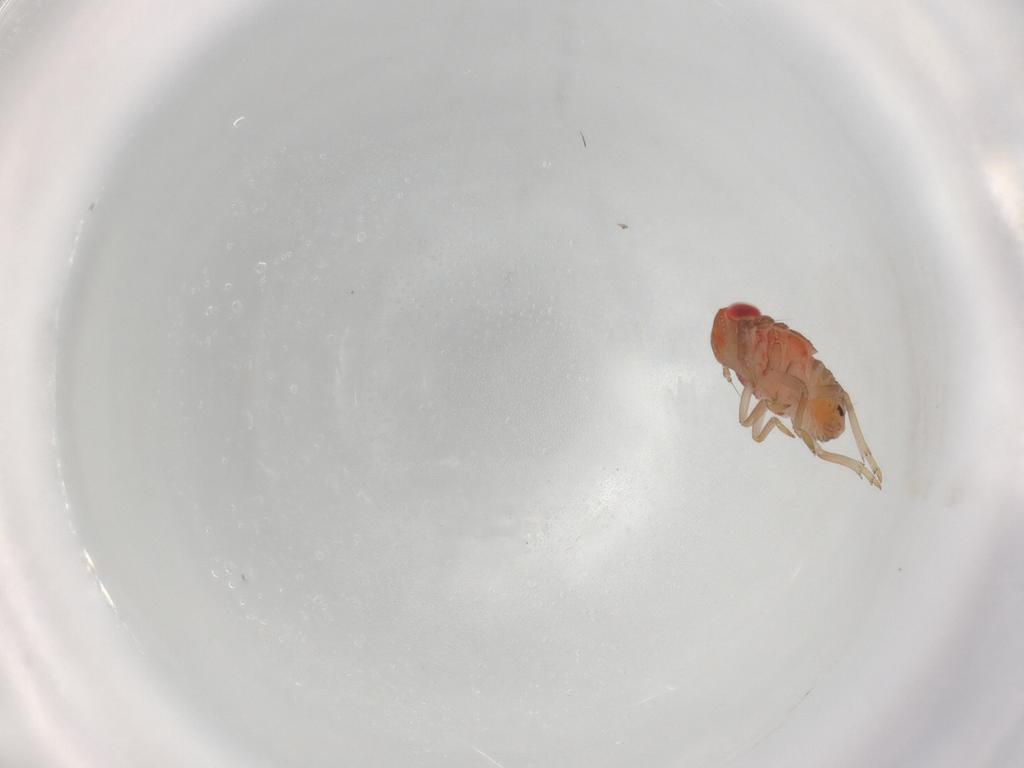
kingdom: Animalia
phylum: Arthropoda
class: Insecta
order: Hemiptera
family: Issidae
